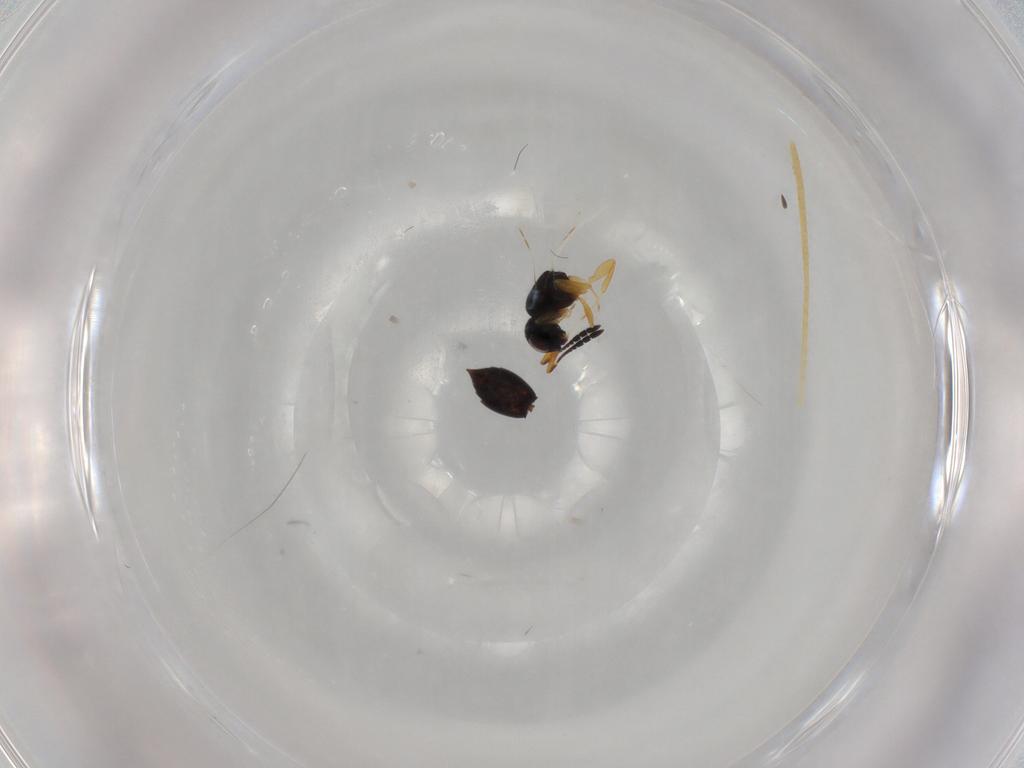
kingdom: Animalia
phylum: Arthropoda
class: Insecta
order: Hymenoptera
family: Ceraphronidae
